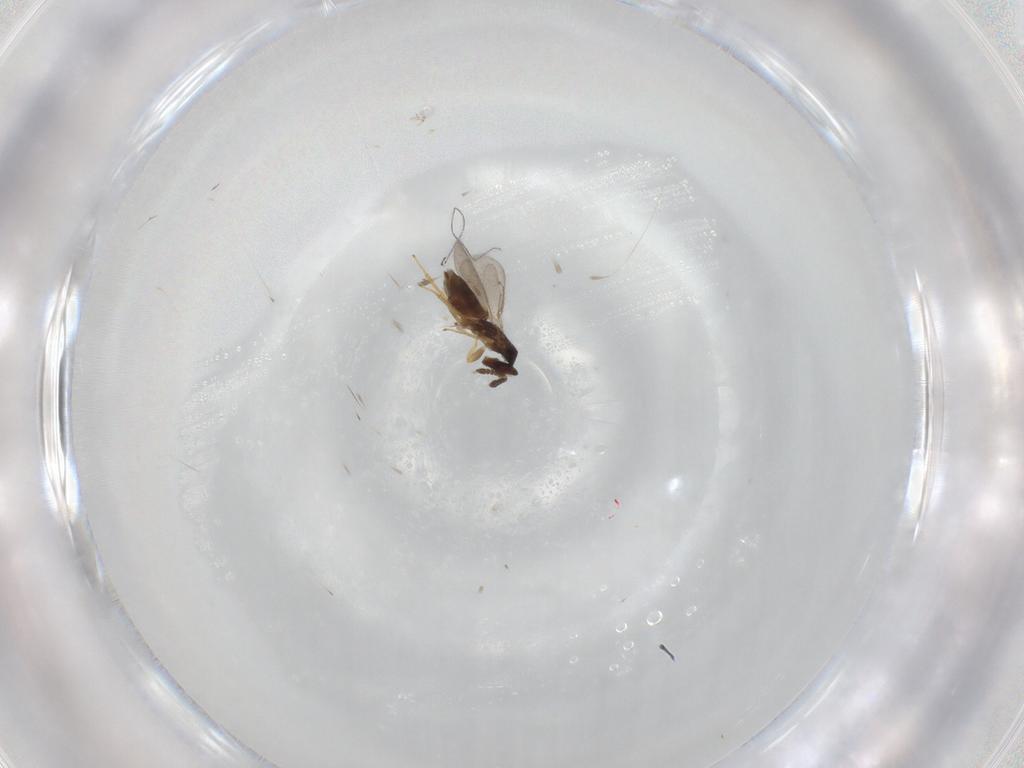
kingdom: Animalia
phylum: Arthropoda
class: Insecta
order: Hymenoptera
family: Eulophidae
